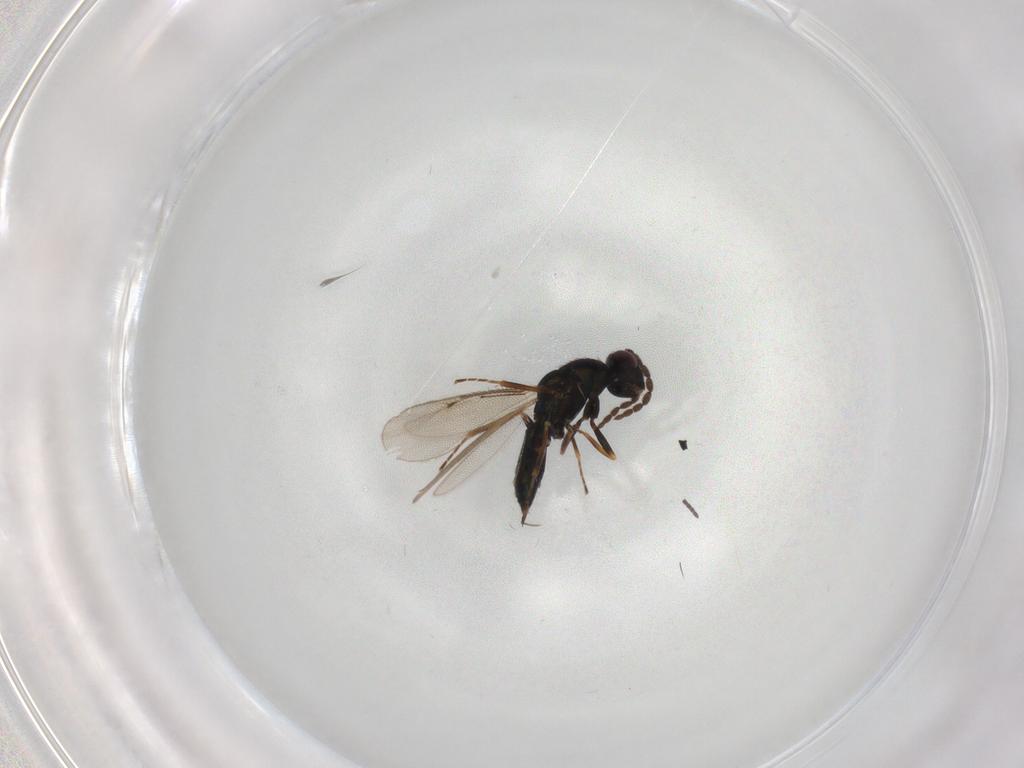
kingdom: Animalia
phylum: Arthropoda
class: Insecta
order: Hymenoptera
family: Eulophidae
